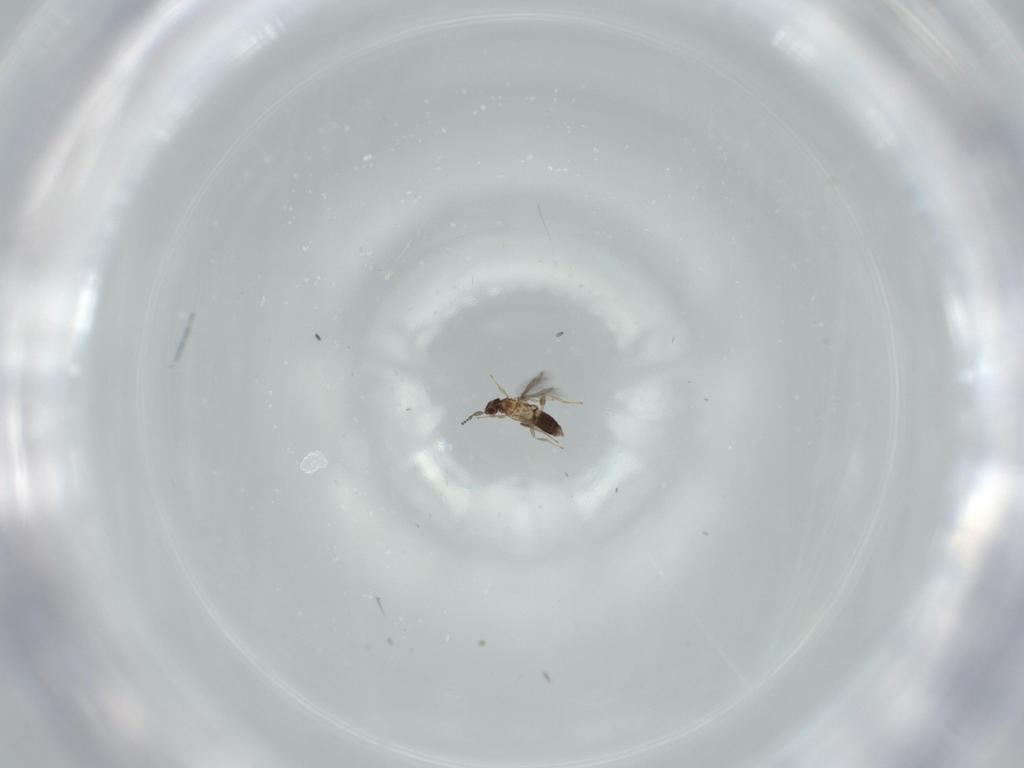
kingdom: Animalia
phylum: Arthropoda
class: Insecta
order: Hymenoptera
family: Mymaridae
